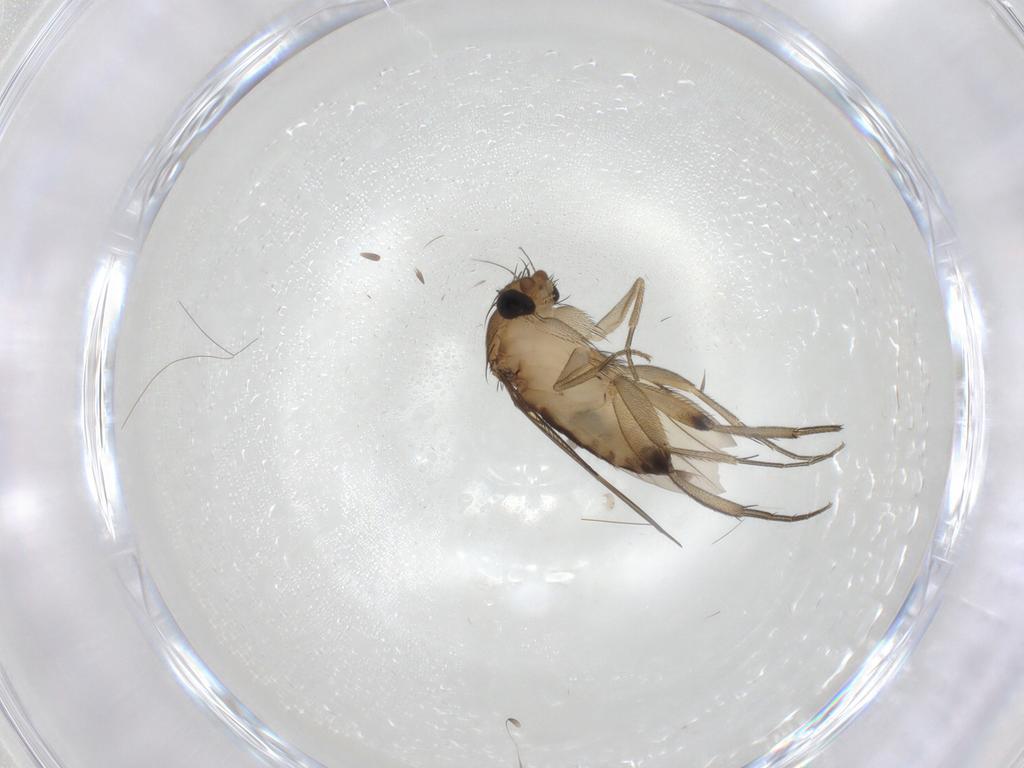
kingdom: Animalia
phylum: Arthropoda
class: Insecta
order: Diptera
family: Phoridae
